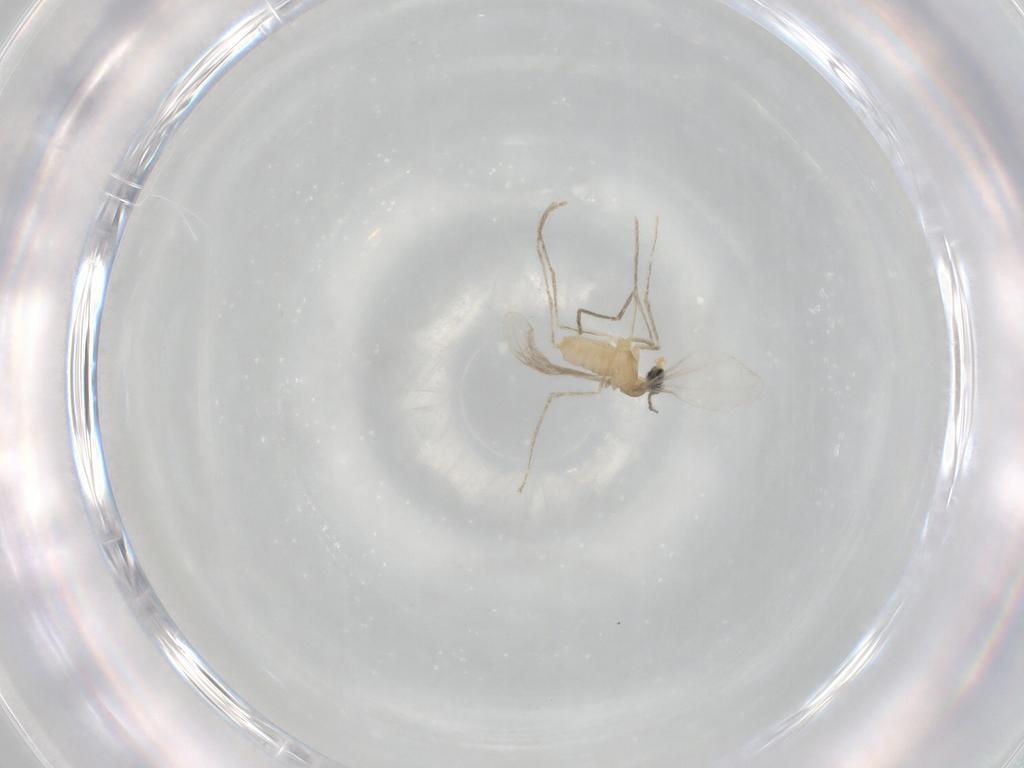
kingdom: Animalia
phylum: Arthropoda
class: Insecta
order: Diptera
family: Cecidomyiidae
